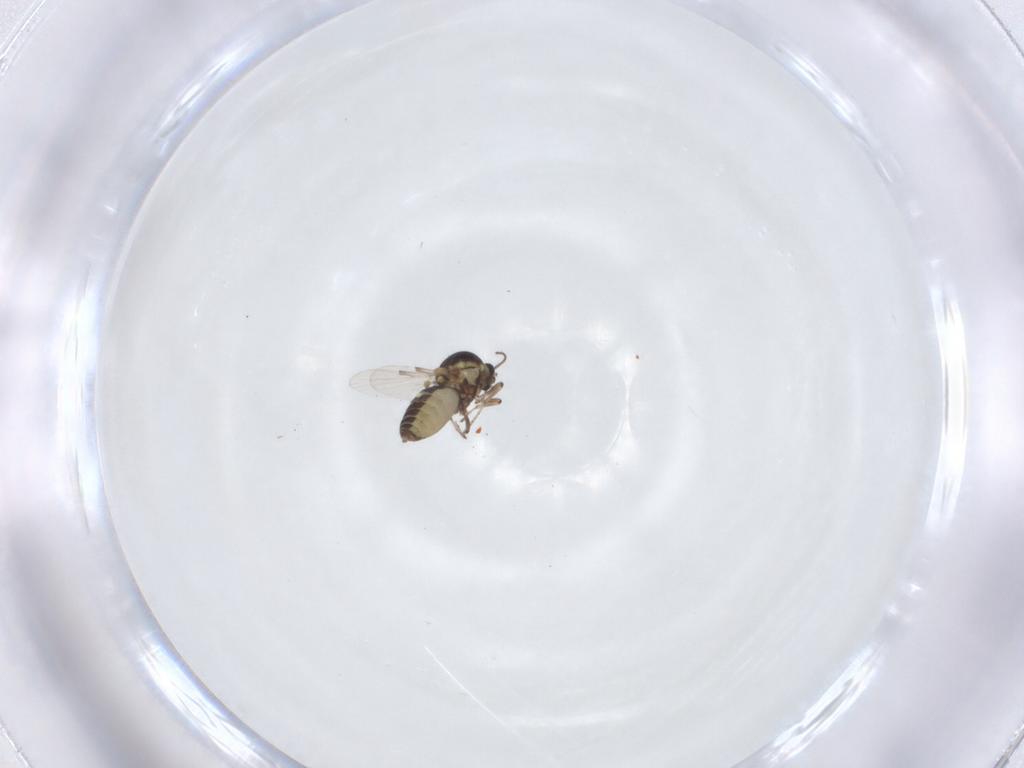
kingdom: Animalia
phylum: Arthropoda
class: Insecta
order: Diptera
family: Ceratopogonidae
